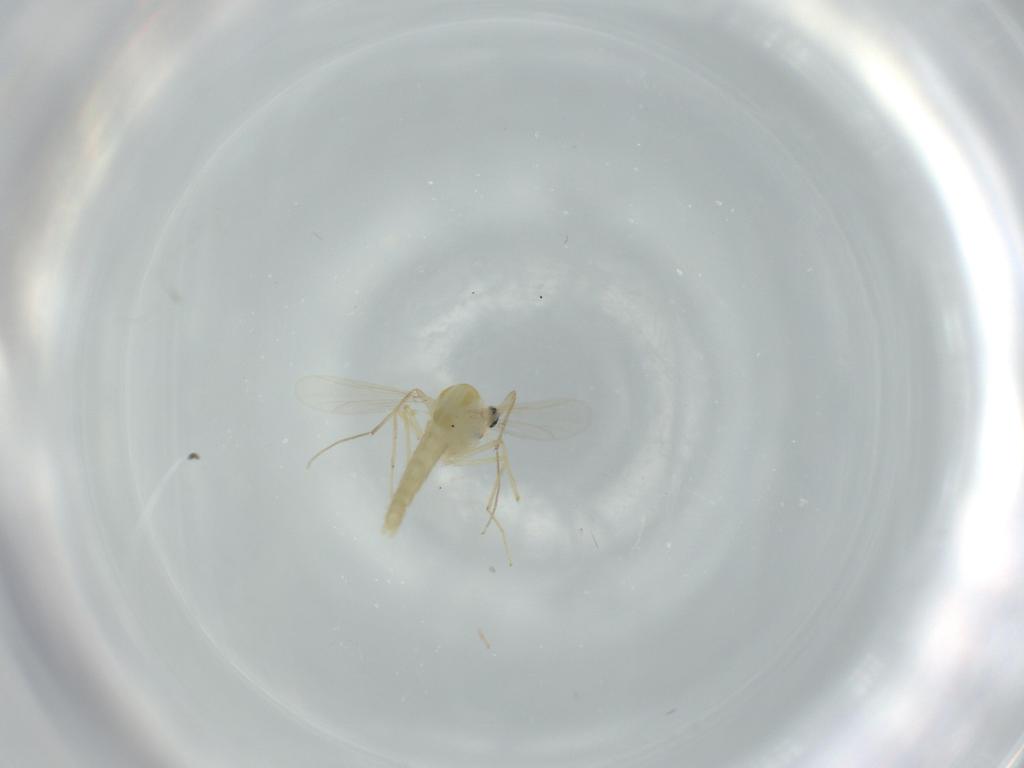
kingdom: Animalia
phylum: Arthropoda
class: Insecta
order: Diptera
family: Chironomidae
